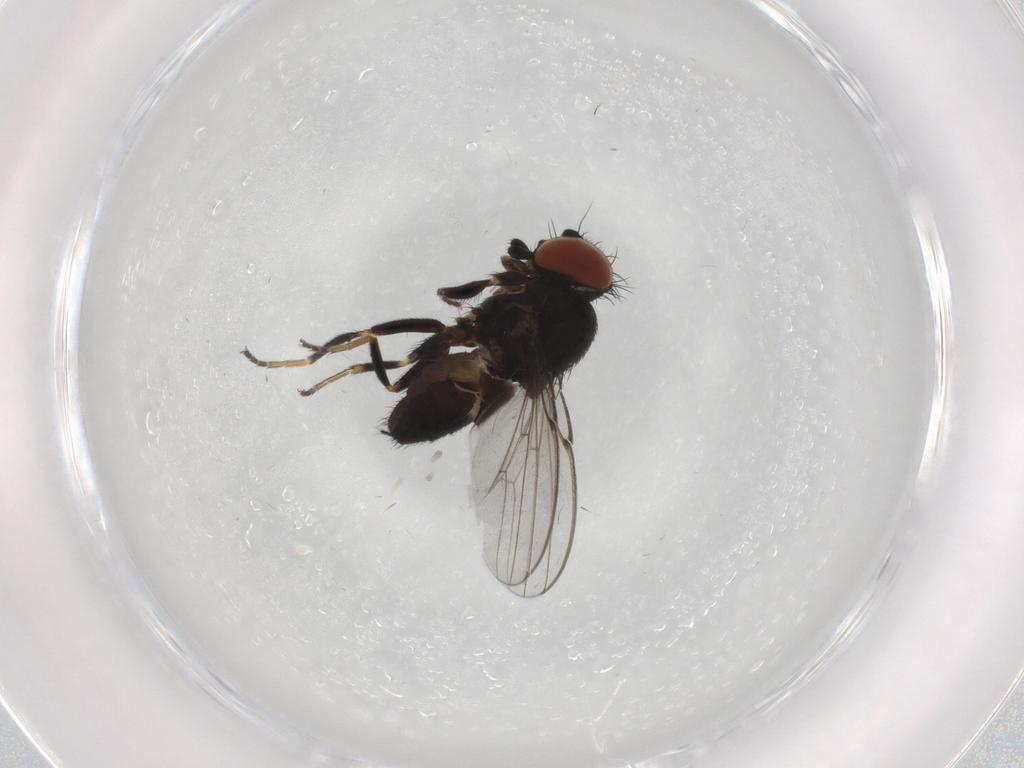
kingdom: Animalia
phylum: Arthropoda
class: Insecta
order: Diptera
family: Milichiidae
